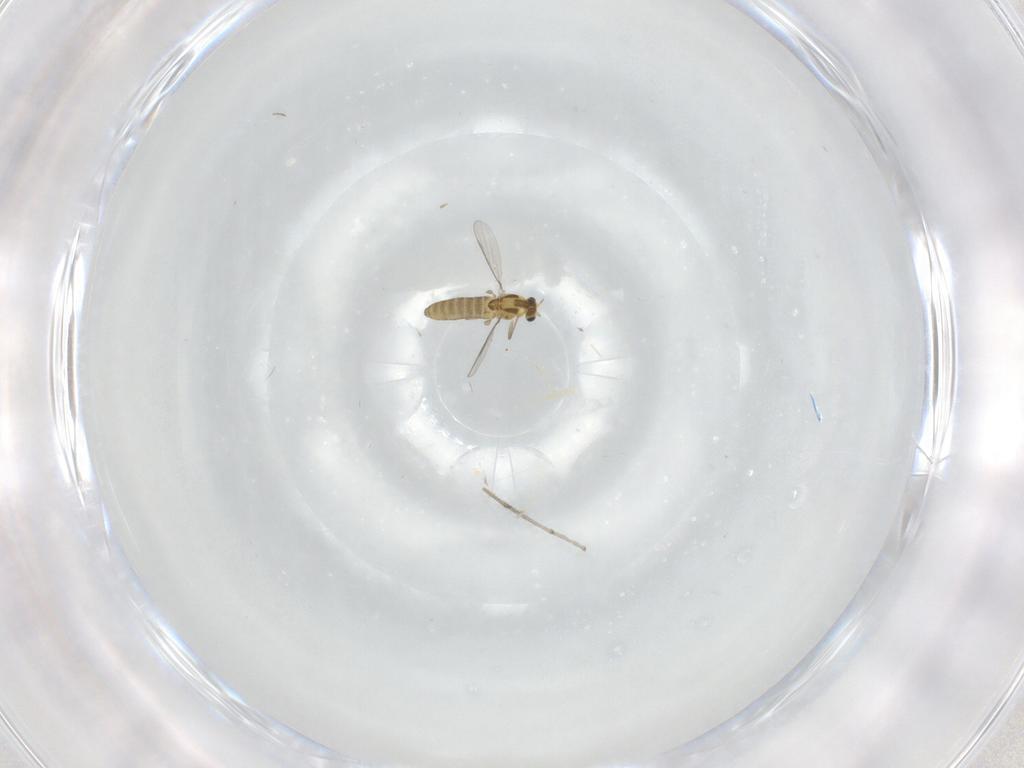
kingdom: Animalia
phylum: Arthropoda
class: Insecta
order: Diptera
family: Chironomidae
